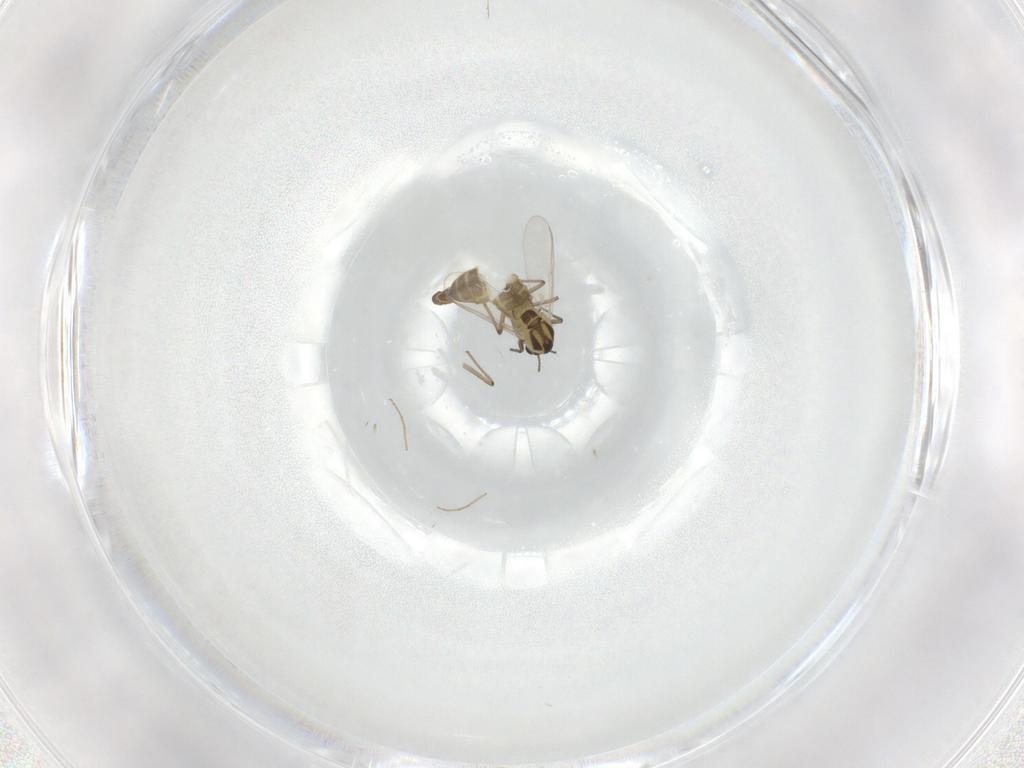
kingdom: Animalia
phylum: Arthropoda
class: Insecta
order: Diptera
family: Chironomidae
